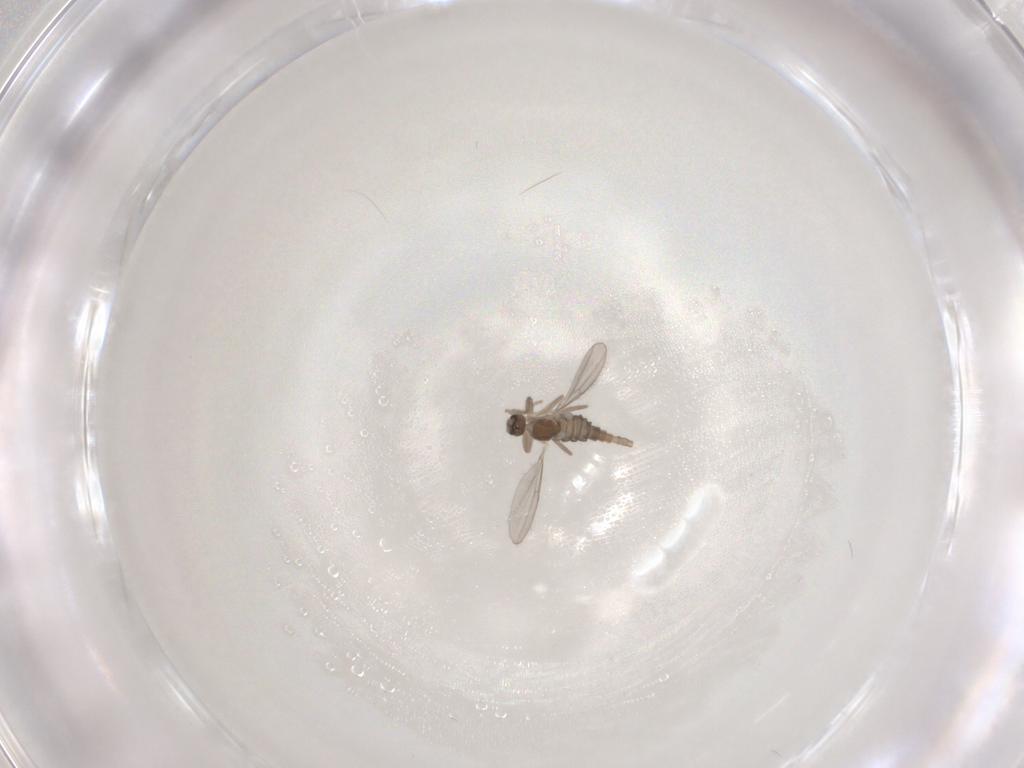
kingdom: Animalia
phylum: Arthropoda
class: Insecta
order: Diptera
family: Cecidomyiidae
